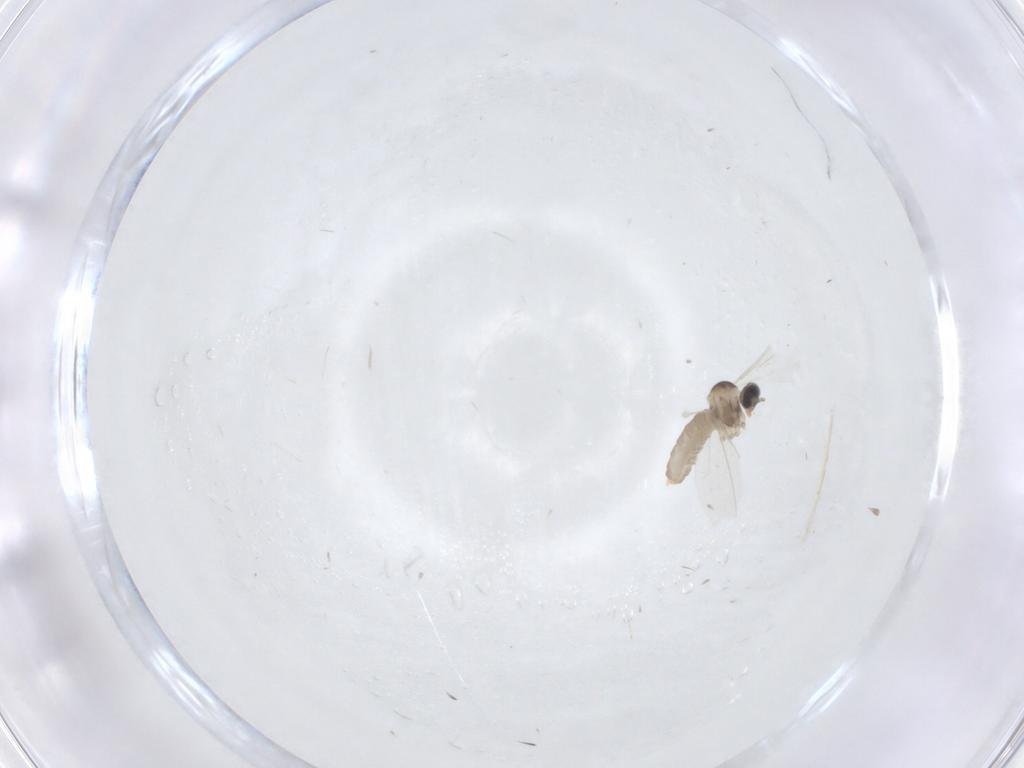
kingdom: Animalia
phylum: Arthropoda
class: Insecta
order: Diptera
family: Cecidomyiidae
